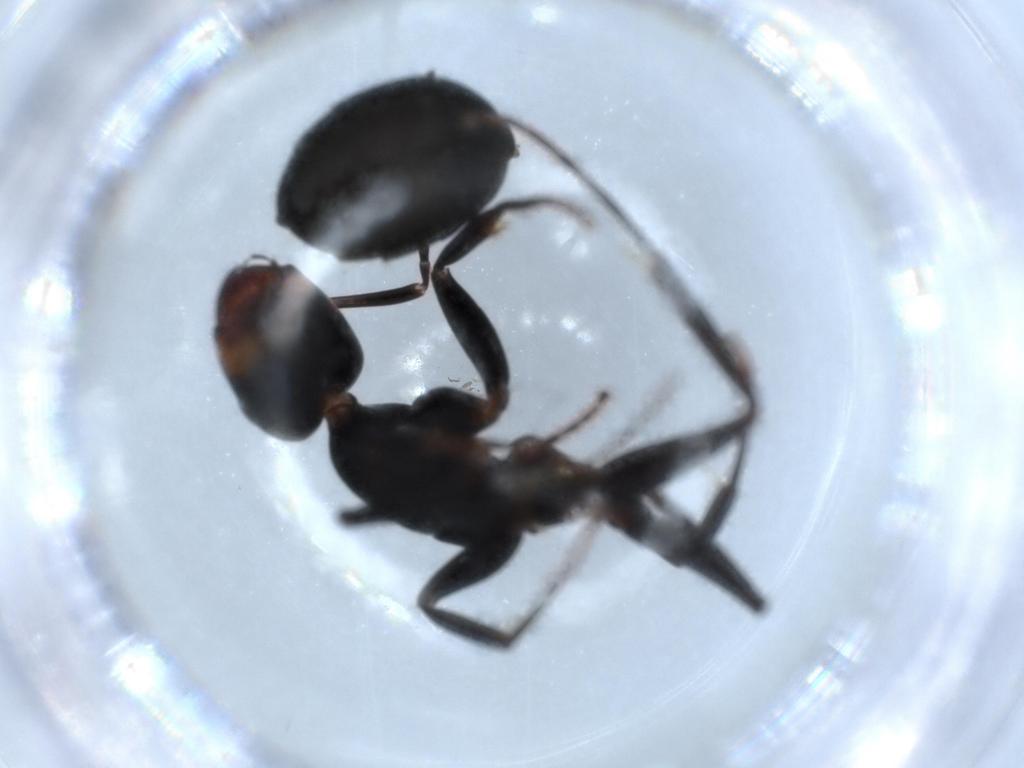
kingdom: Animalia
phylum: Arthropoda
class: Insecta
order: Hymenoptera
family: Formicidae
